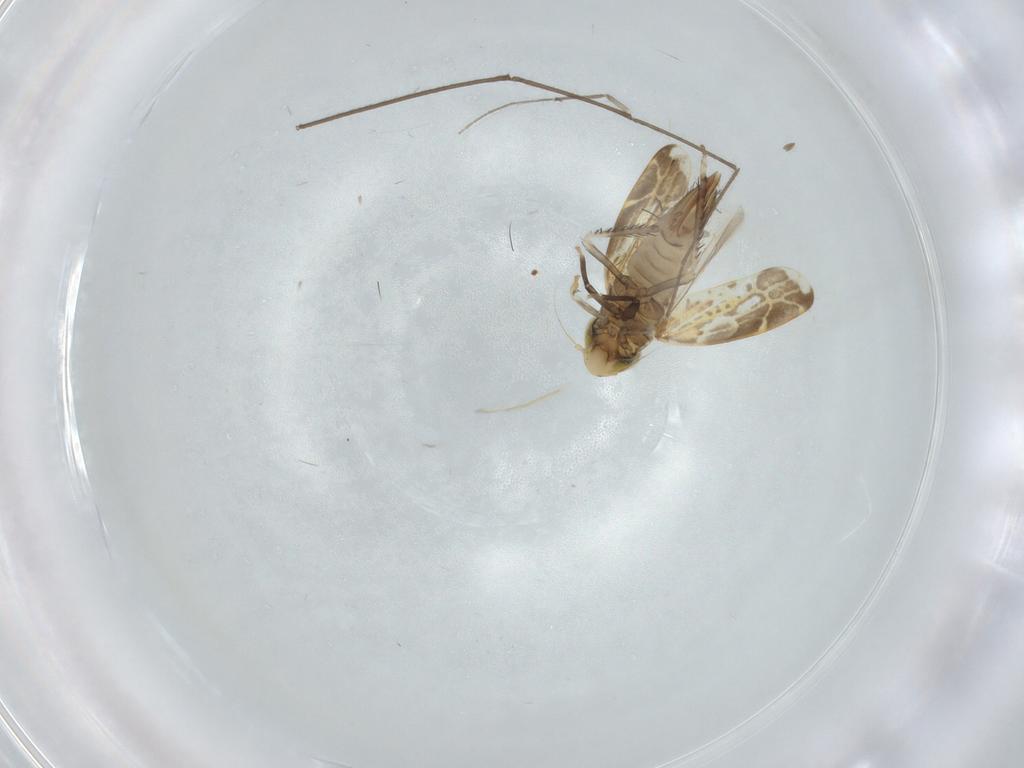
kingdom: Animalia
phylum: Arthropoda
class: Insecta
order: Hemiptera
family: Cicadellidae
